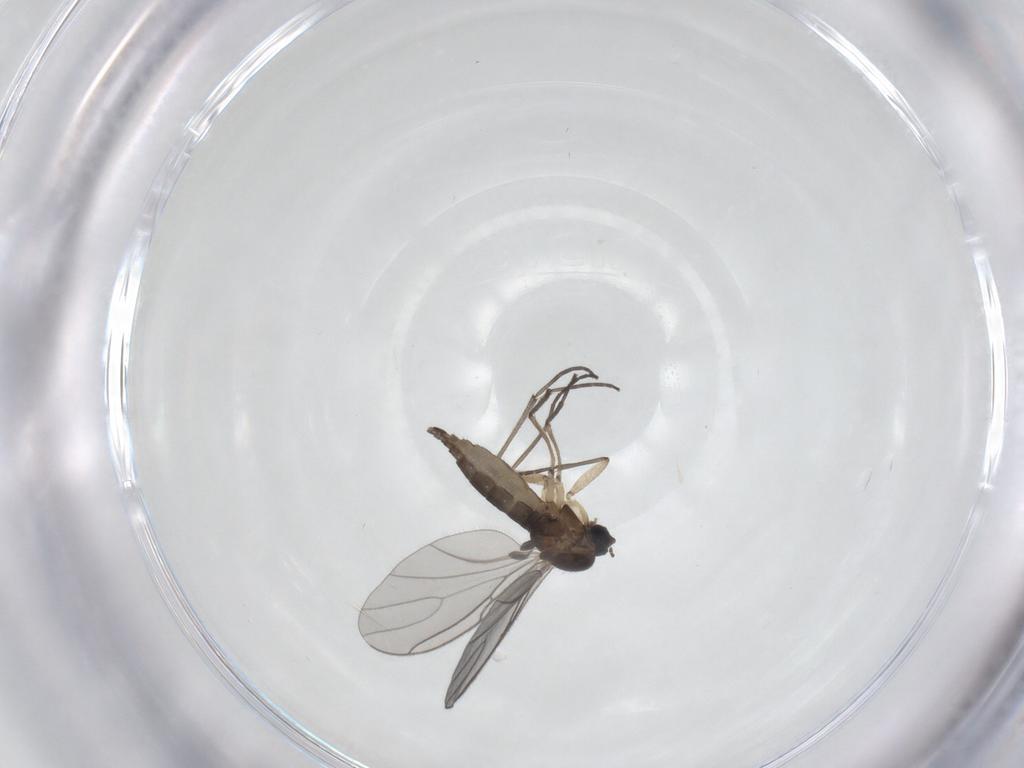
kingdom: Animalia
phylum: Arthropoda
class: Insecta
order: Diptera
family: Sciaridae
